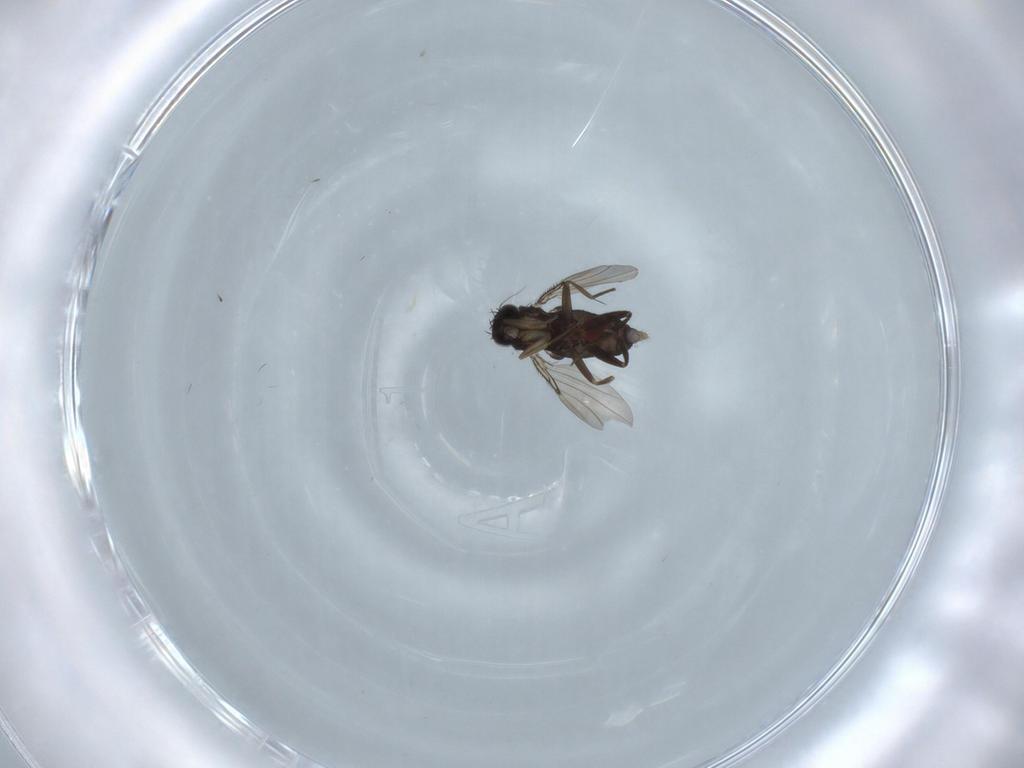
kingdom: Animalia
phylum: Arthropoda
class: Insecta
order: Diptera
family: Phoridae
